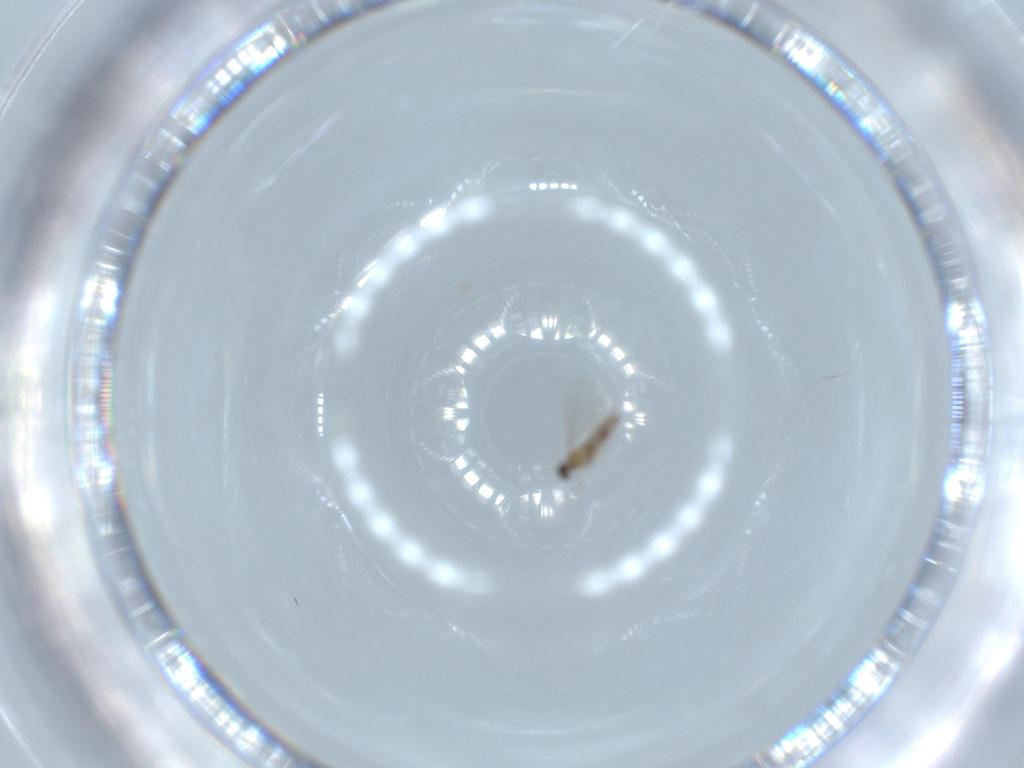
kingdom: Animalia
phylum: Arthropoda
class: Insecta
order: Diptera
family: Cecidomyiidae
